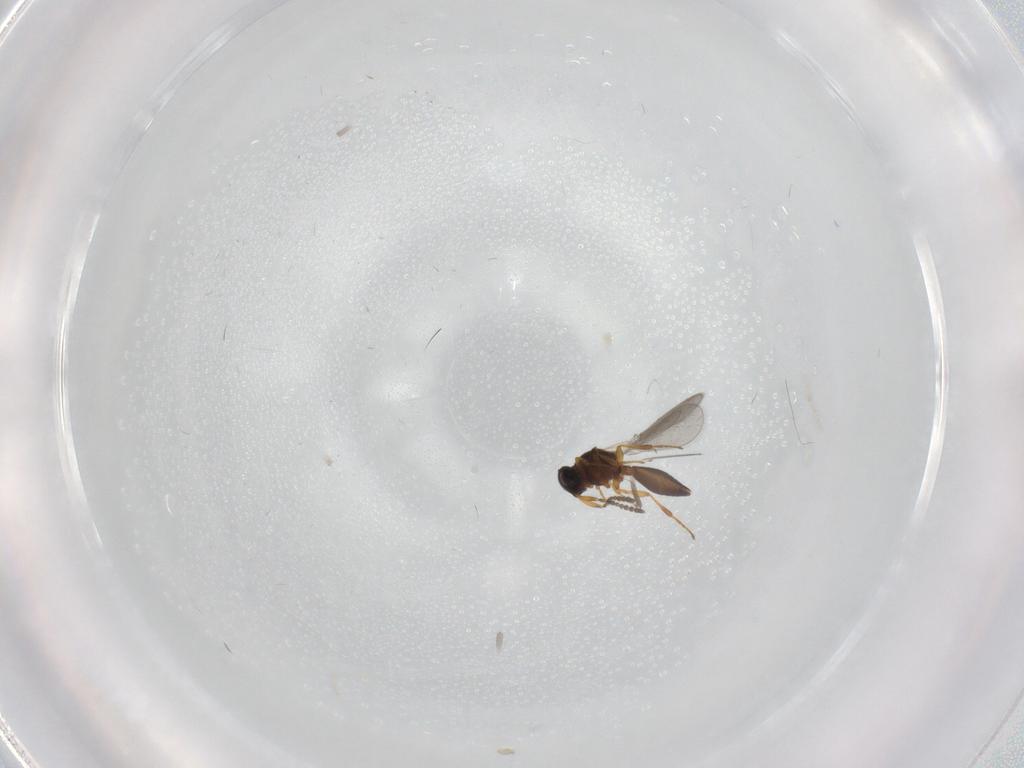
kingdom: Animalia
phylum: Arthropoda
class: Insecta
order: Hymenoptera
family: Platygastridae
